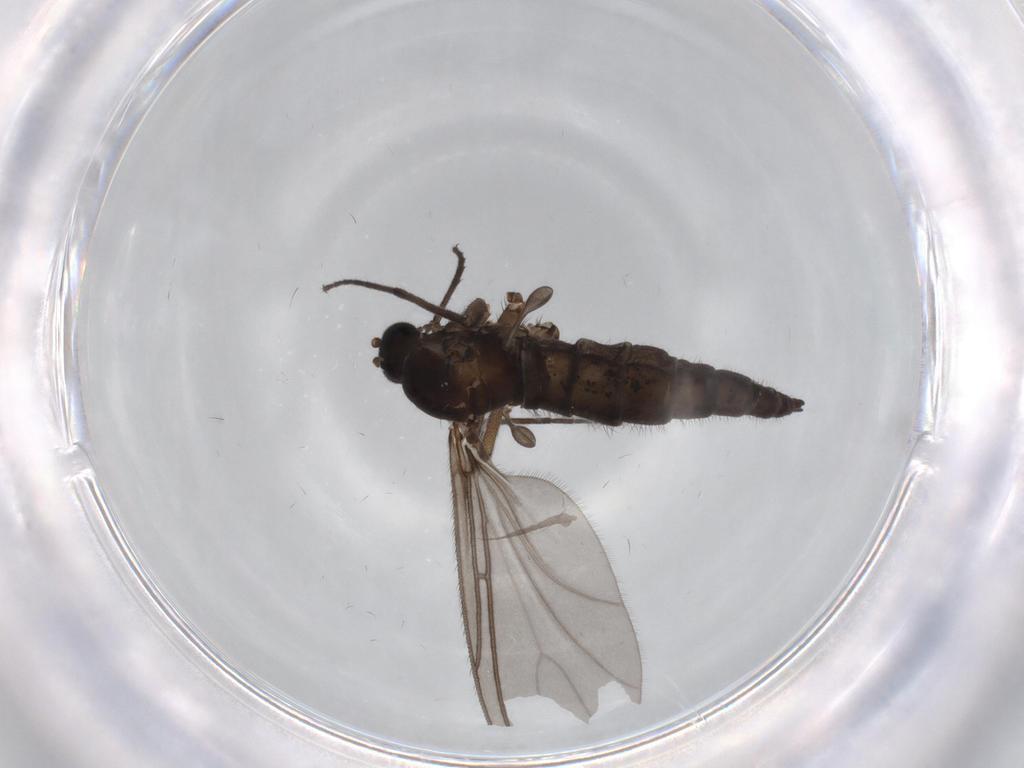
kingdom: Animalia
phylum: Arthropoda
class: Insecta
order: Diptera
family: Sciaridae
